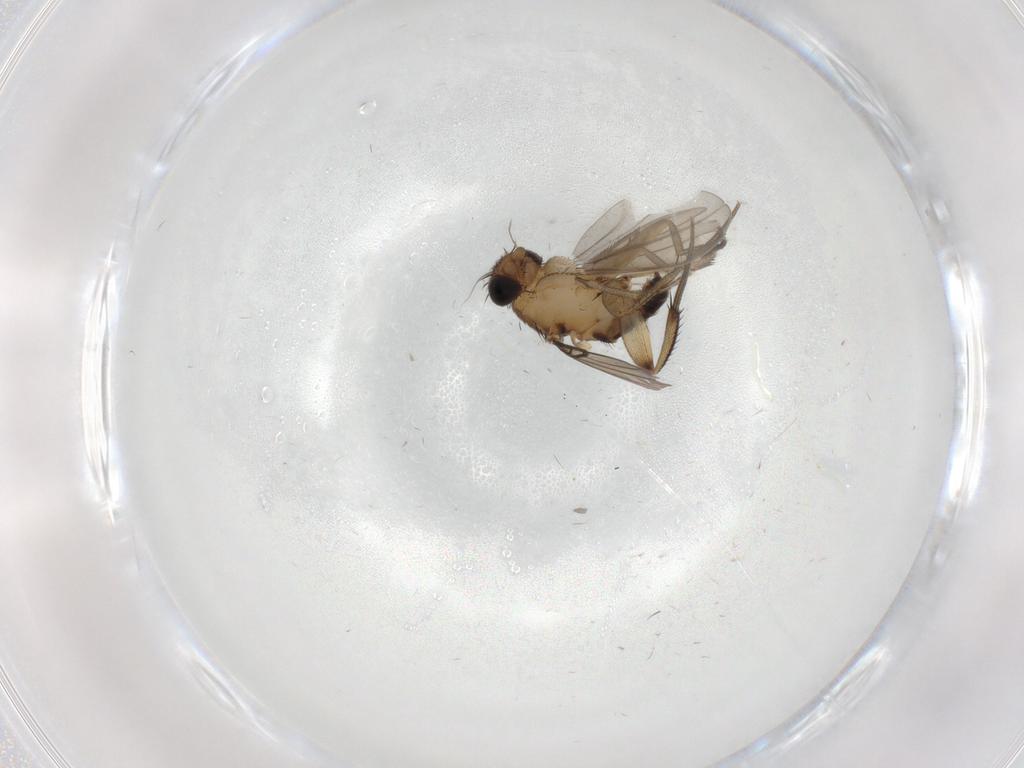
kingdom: Animalia
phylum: Arthropoda
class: Insecta
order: Diptera
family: Phoridae
